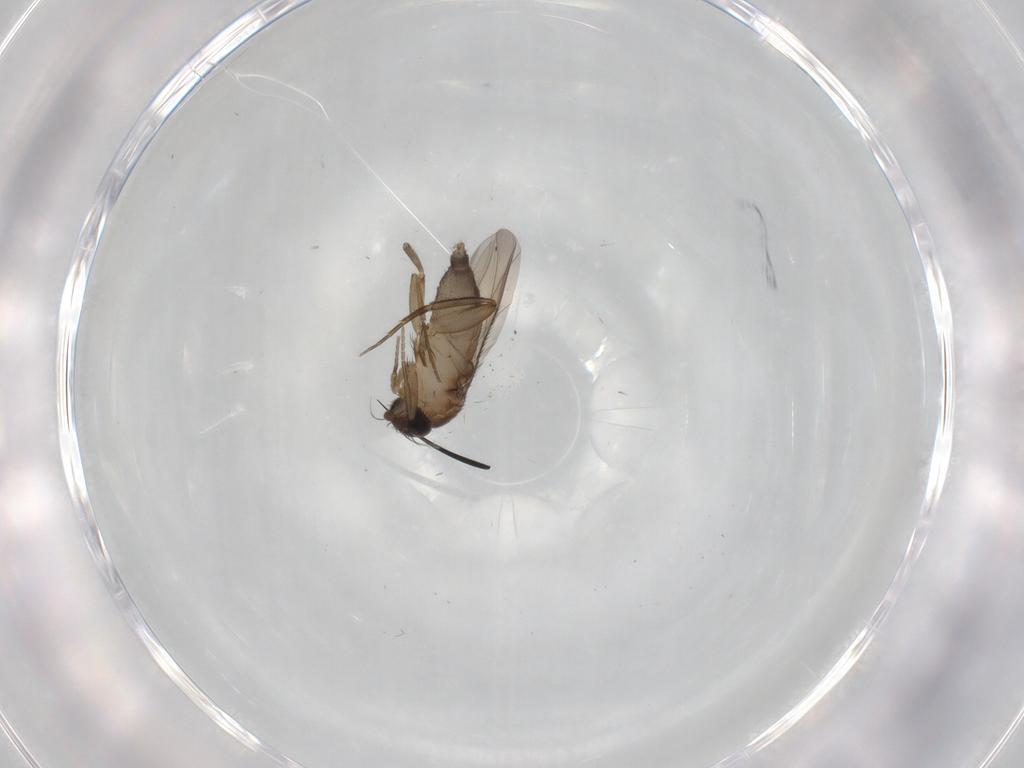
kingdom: Animalia
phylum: Arthropoda
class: Insecta
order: Diptera
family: Phoridae
